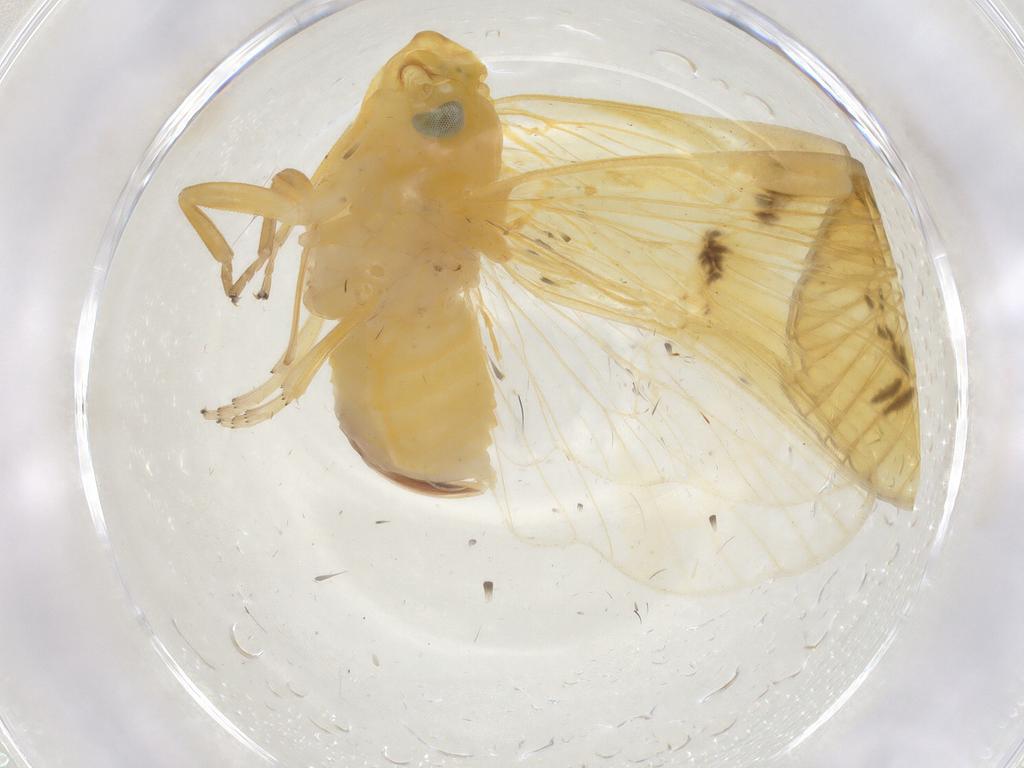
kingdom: Animalia
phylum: Arthropoda
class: Insecta
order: Hemiptera
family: Cixiidae
